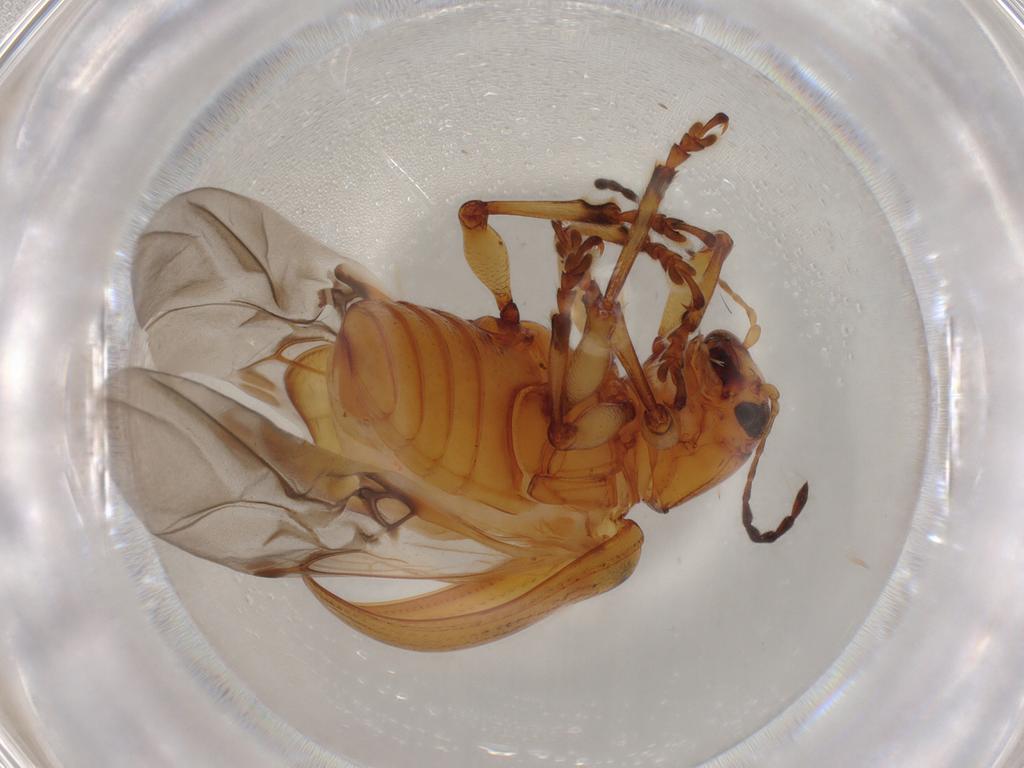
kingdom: Animalia
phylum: Arthropoda
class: Insecta
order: Coleoptera
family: Chrysomelidae
